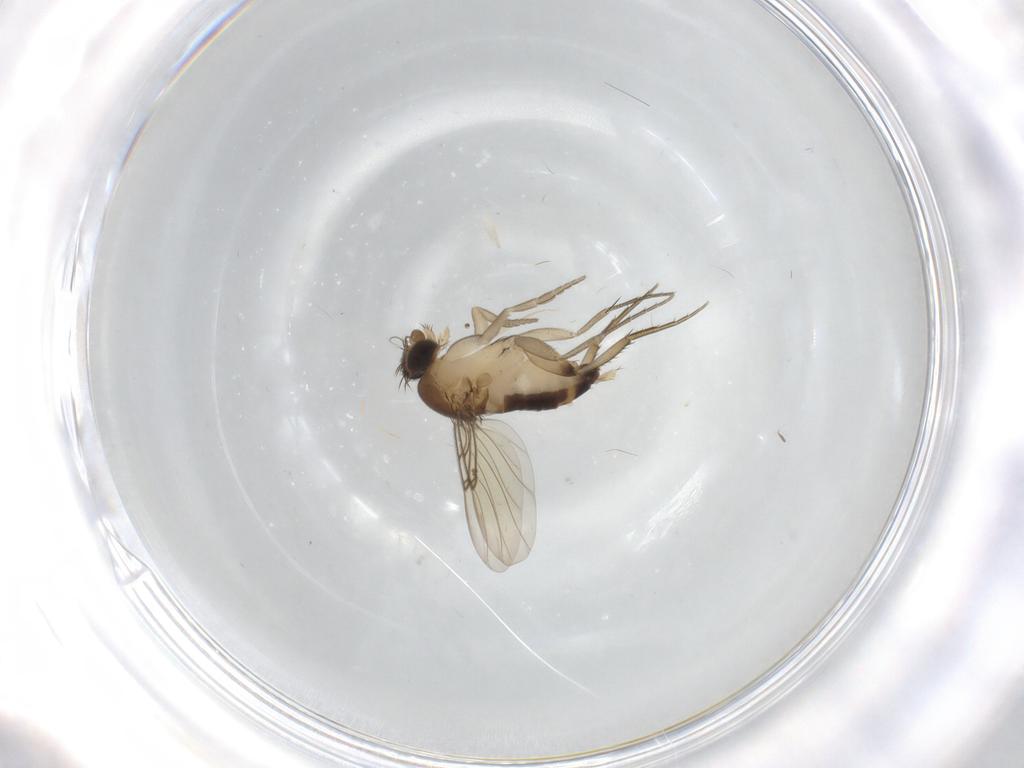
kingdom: Animalia
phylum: Arthropoda
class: Insecta
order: Diptera
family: Phoridae
